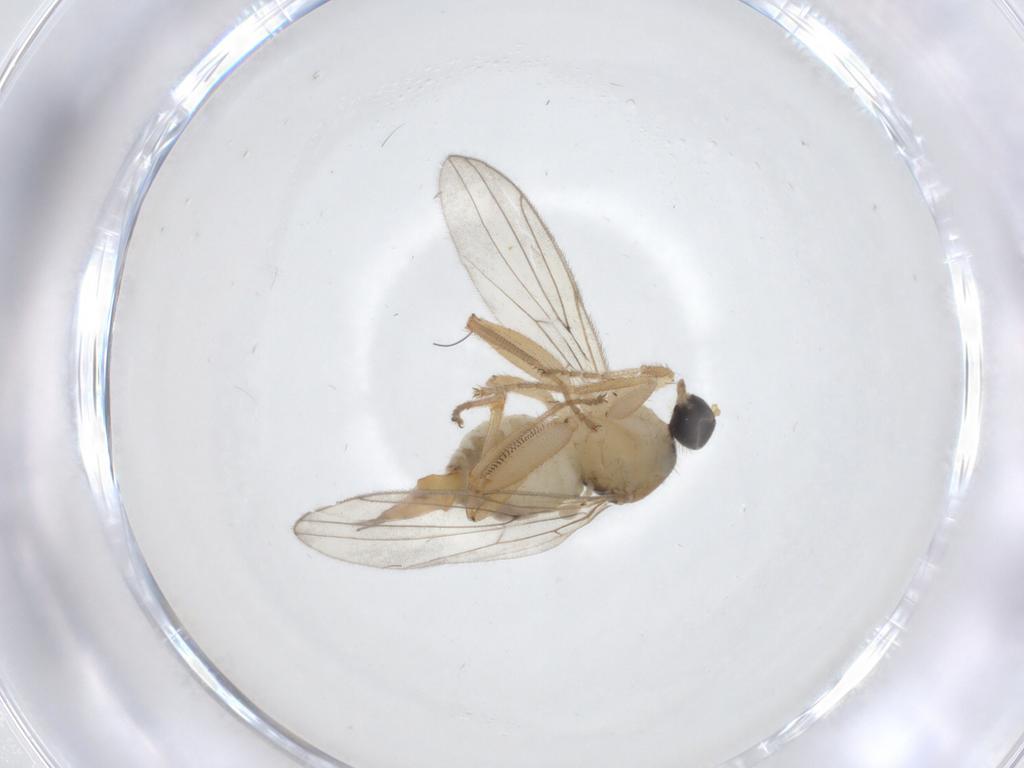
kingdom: Animalia
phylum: Arthropoda
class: Insecta
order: Diptera
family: Hybotidae
